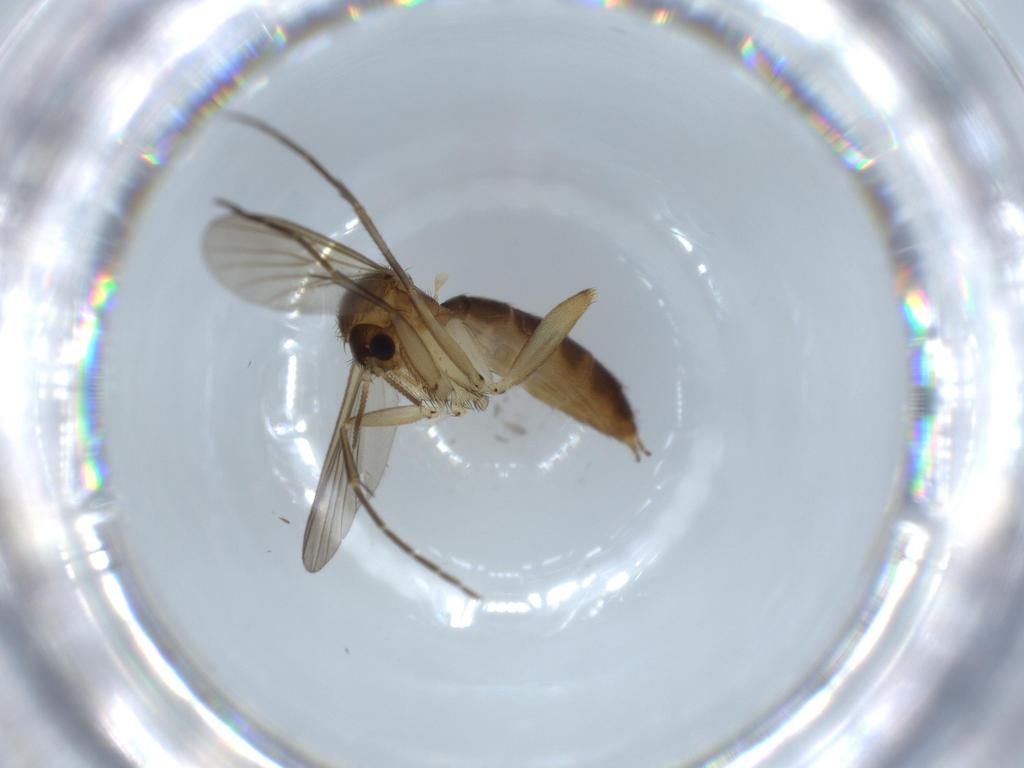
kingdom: Animalia
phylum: Arthropoda
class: Insecta
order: Diptera
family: Mycetophilidae
